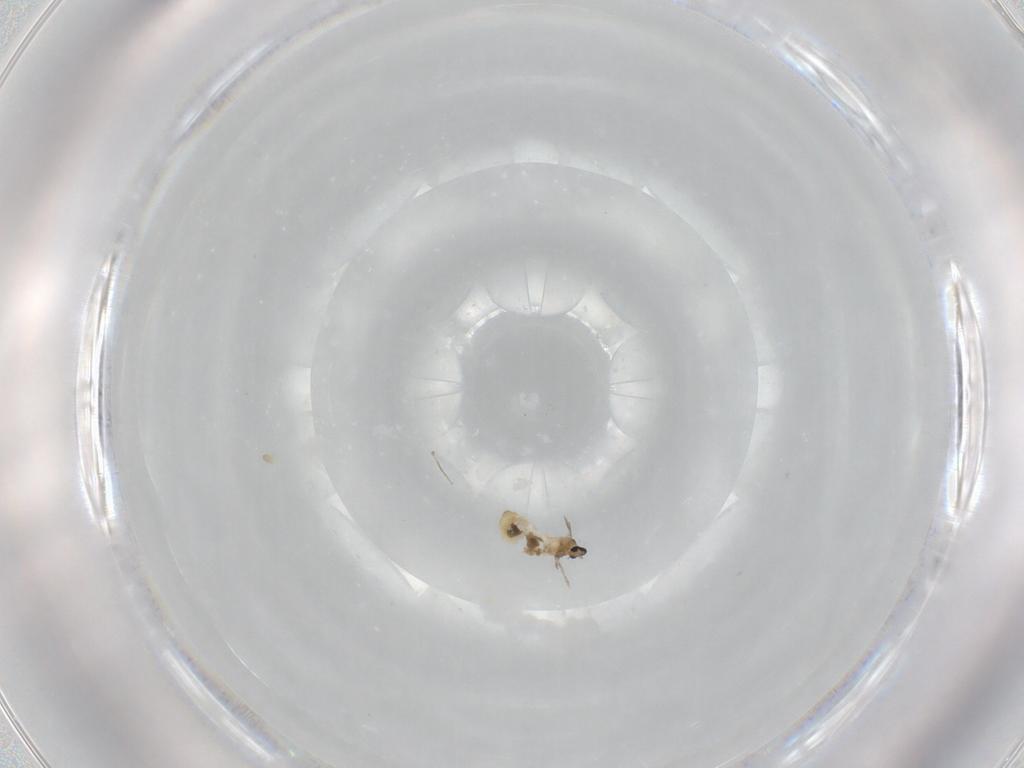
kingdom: Animalia
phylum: Arthropoda
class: Insecta
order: Diptera
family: Cecidomyiidae
